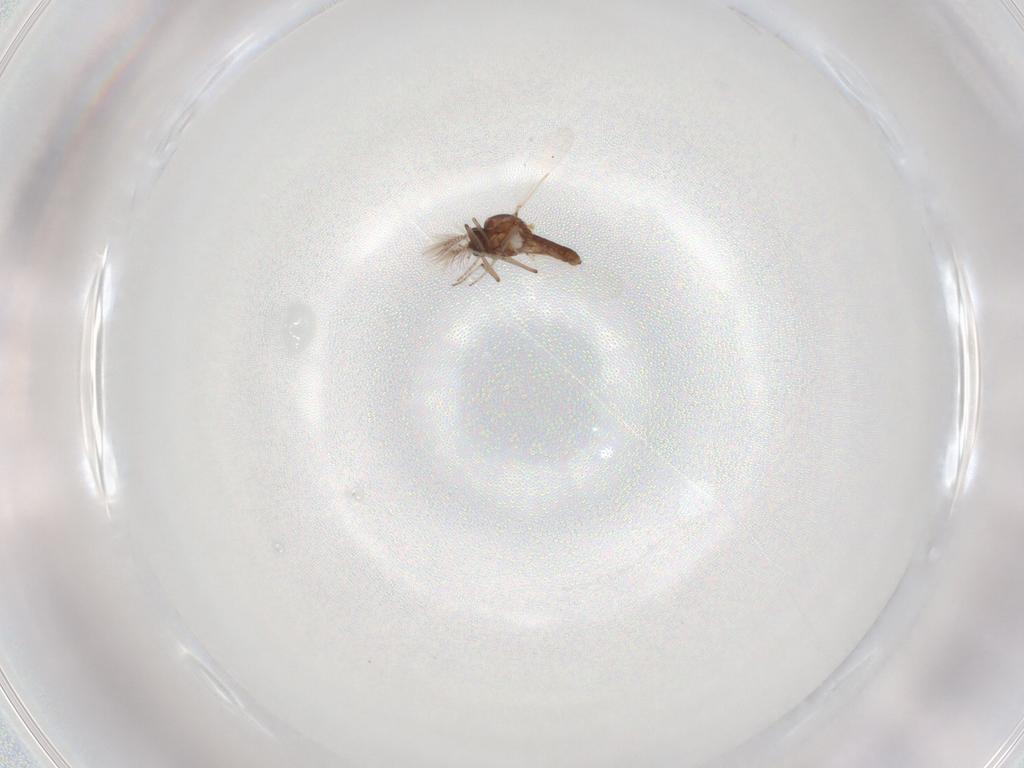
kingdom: Animalia
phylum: Arthropoda
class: Insecta
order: Diptera
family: Ceratopogonidae
